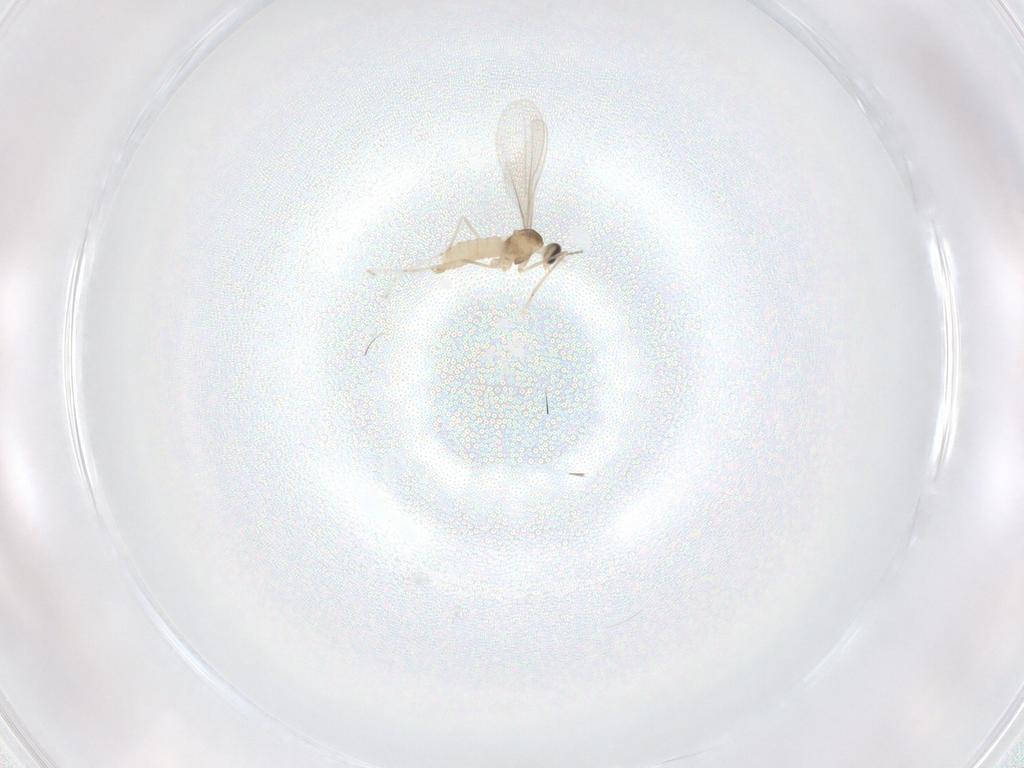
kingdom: Animalia
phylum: Arthropoda
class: Insecta
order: Diptera
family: Cecidomyiidae
